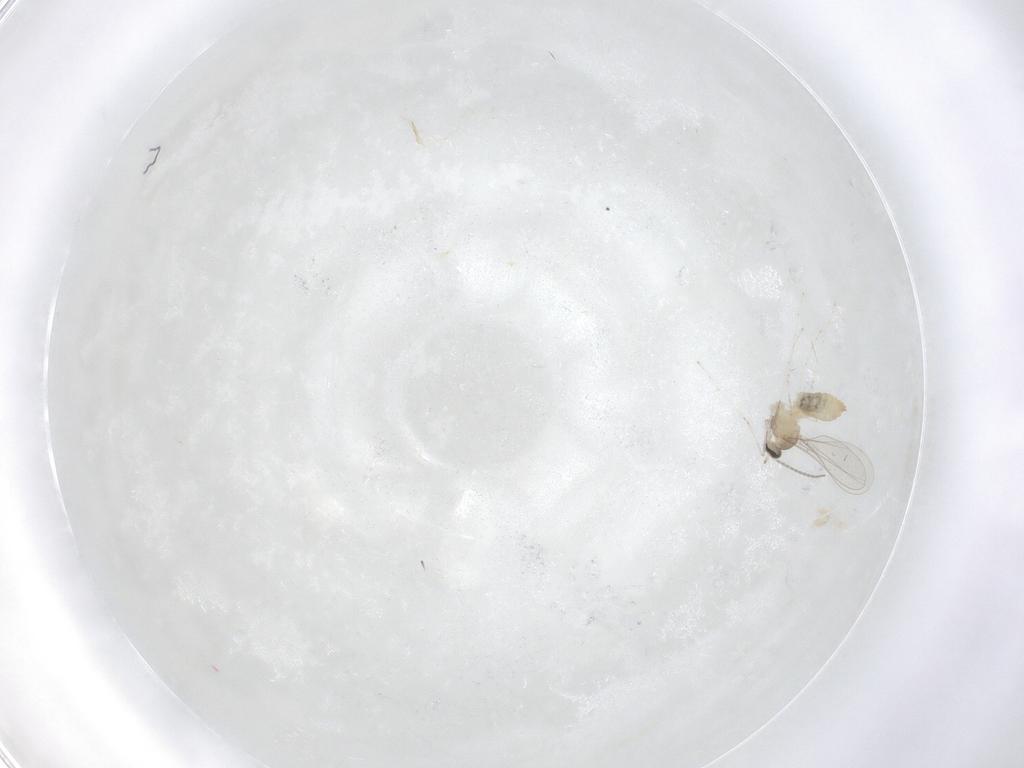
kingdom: Animalia
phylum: Arthropoda
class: Insecta
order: Diptera
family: Cecidomyiidae
